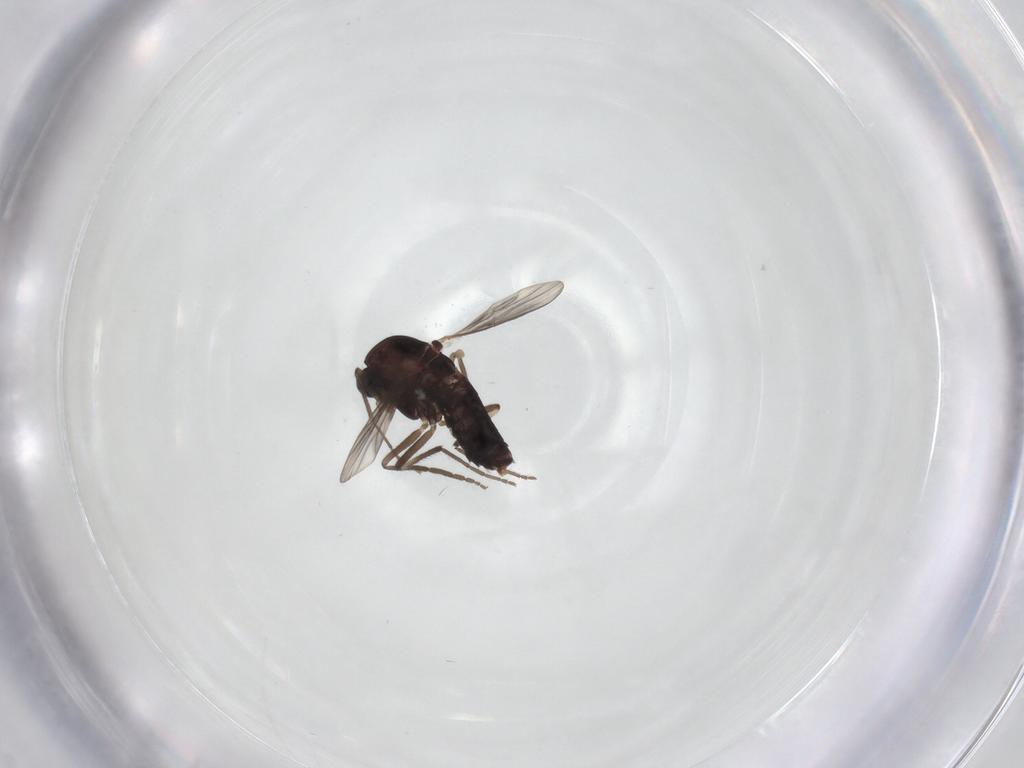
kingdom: Animalia
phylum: Arthropoda
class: Insecta
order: Diptera
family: Chironomidae
